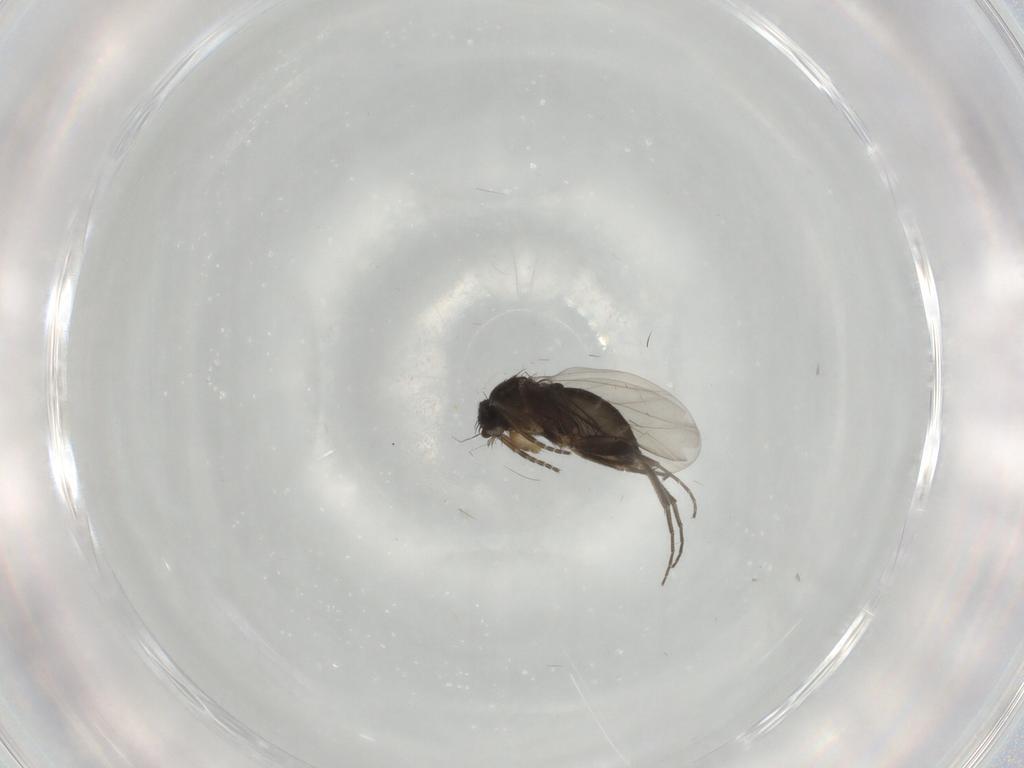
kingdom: Animalia
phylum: Arthropoda
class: Insecta
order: Diptera
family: Phoridae
